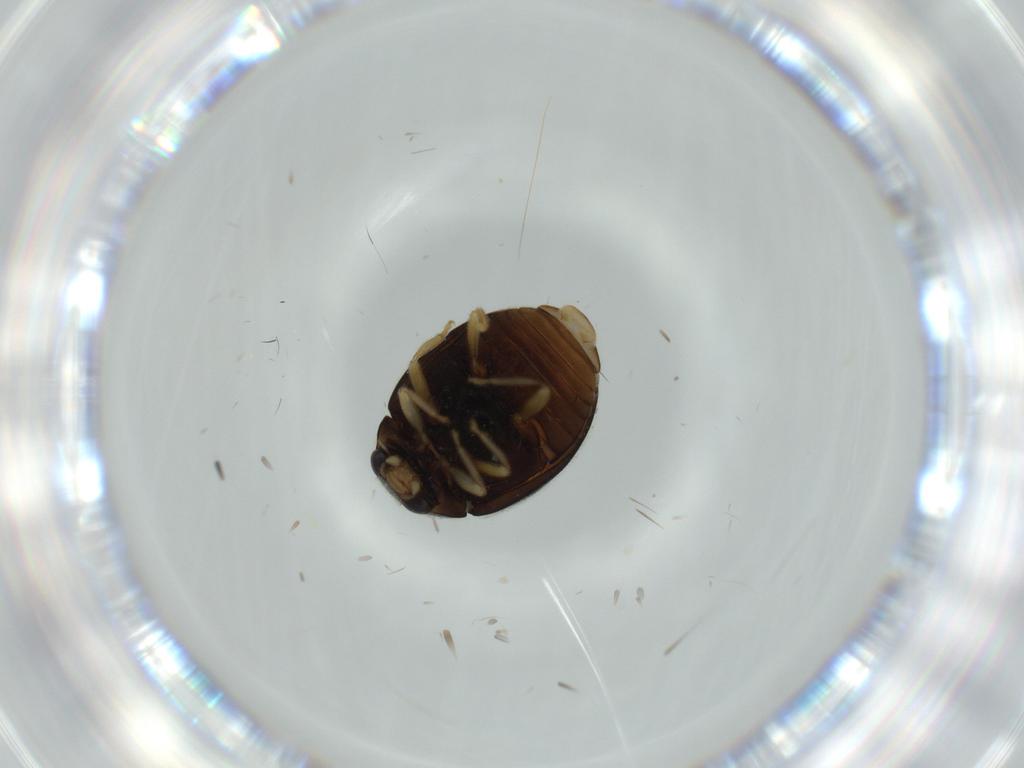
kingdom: Animalia
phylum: Arthropoda
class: Insecta
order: Coleoptera
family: Coccinellidae
